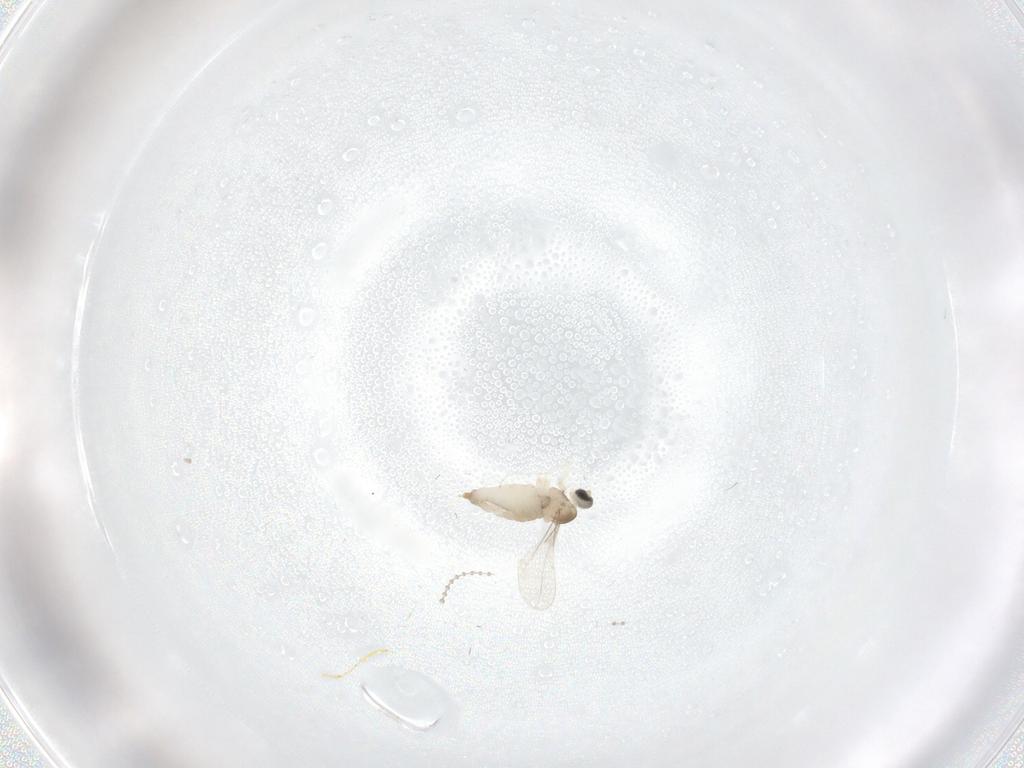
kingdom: Animalia
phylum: Arthropoda
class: Insecta
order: Diptera
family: Cecidomyiidae
